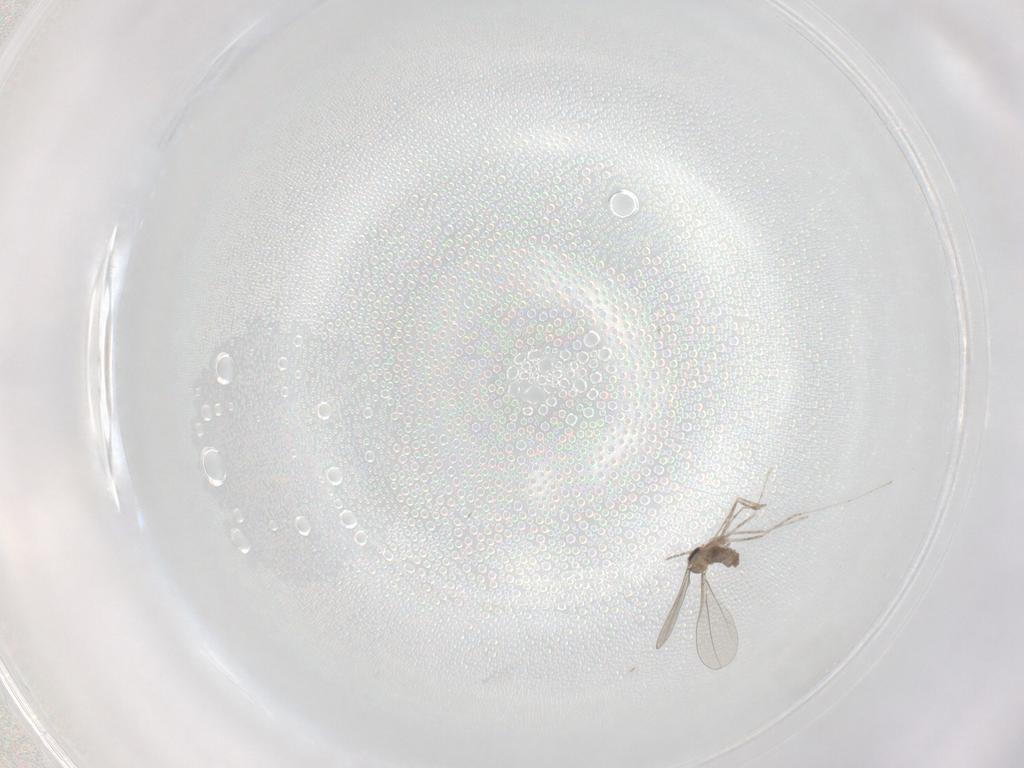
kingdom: Animalia
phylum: Arthropoda
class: Insecta
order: Diptera
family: Cecidomyiidae
